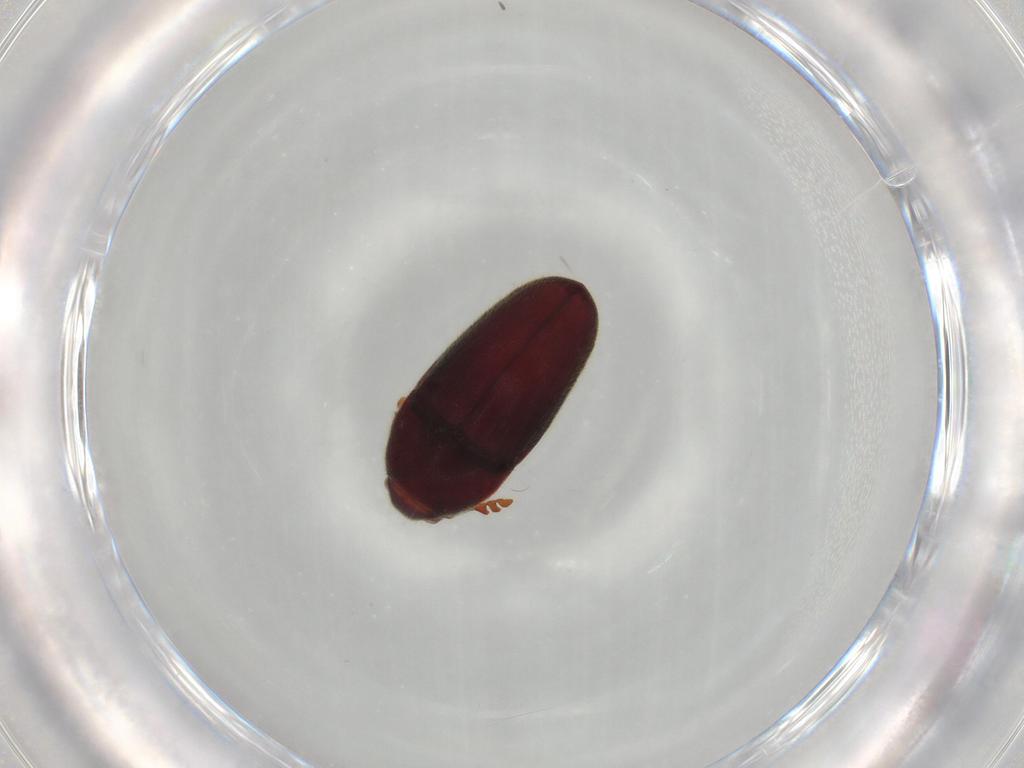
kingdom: Animalia
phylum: Arthropoda
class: Insecta
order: Coleoptera
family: Throscidae
